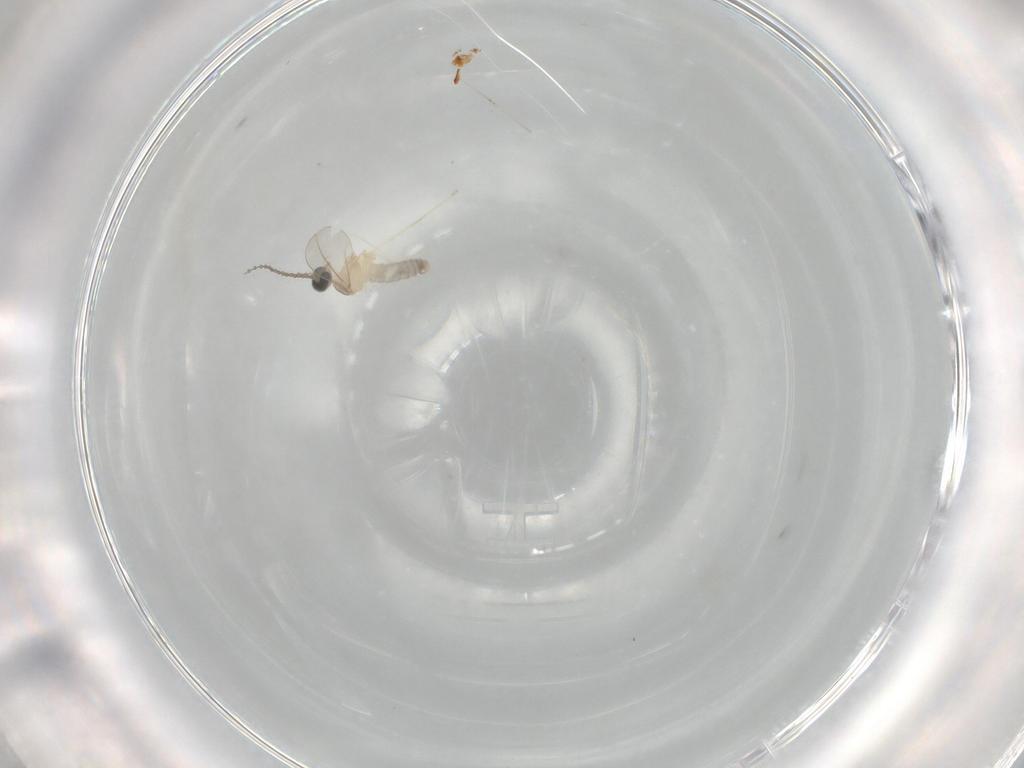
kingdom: Animalia
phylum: Arthropoda
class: Insecta
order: Diptera
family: Cecidomyiidae
